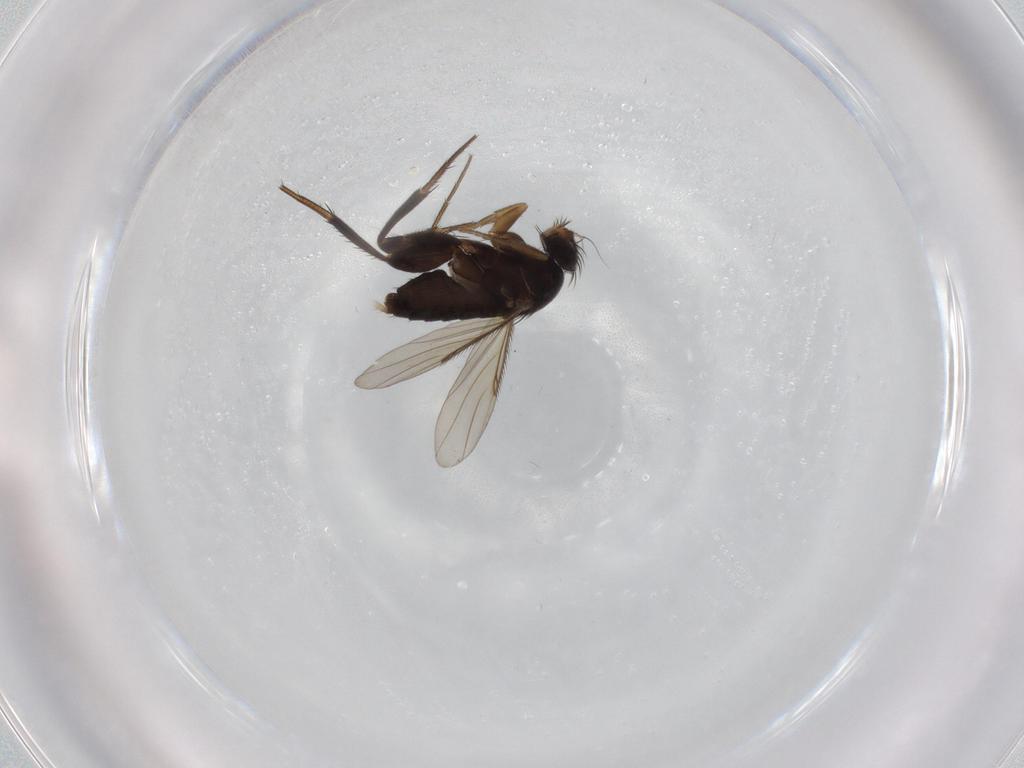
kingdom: Animalia
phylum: Arthropoda
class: Insecta
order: Diptera
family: Phoridae
